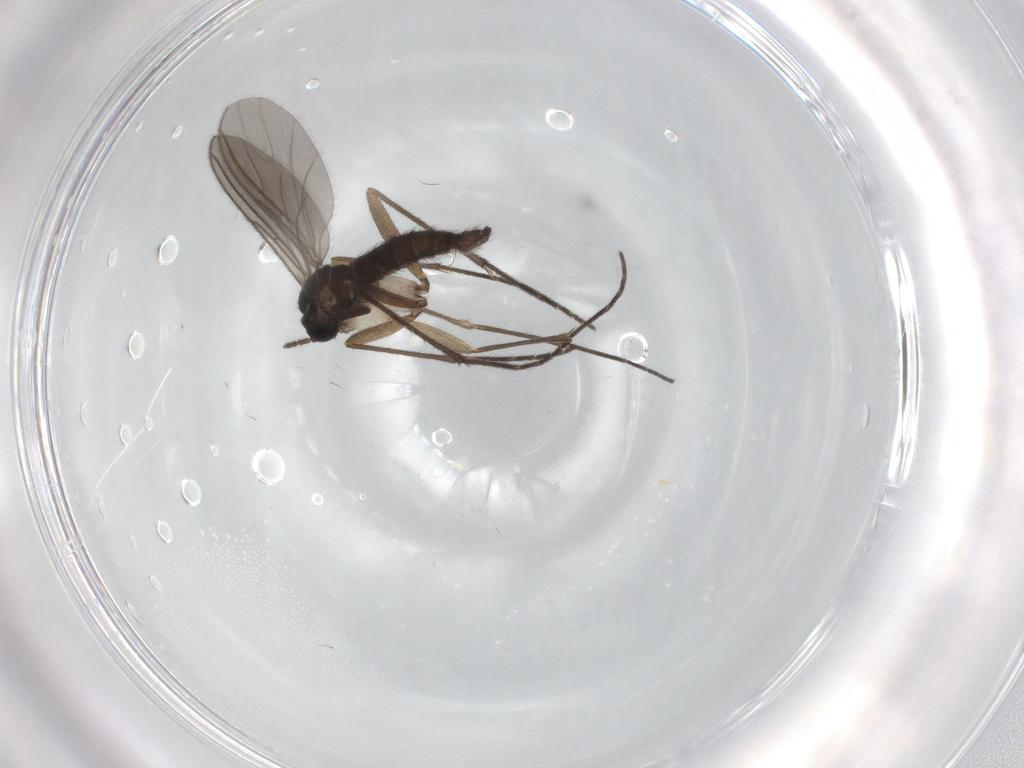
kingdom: Animalia
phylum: Arthropoda
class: Insecta
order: Diptera
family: Sciaridae
